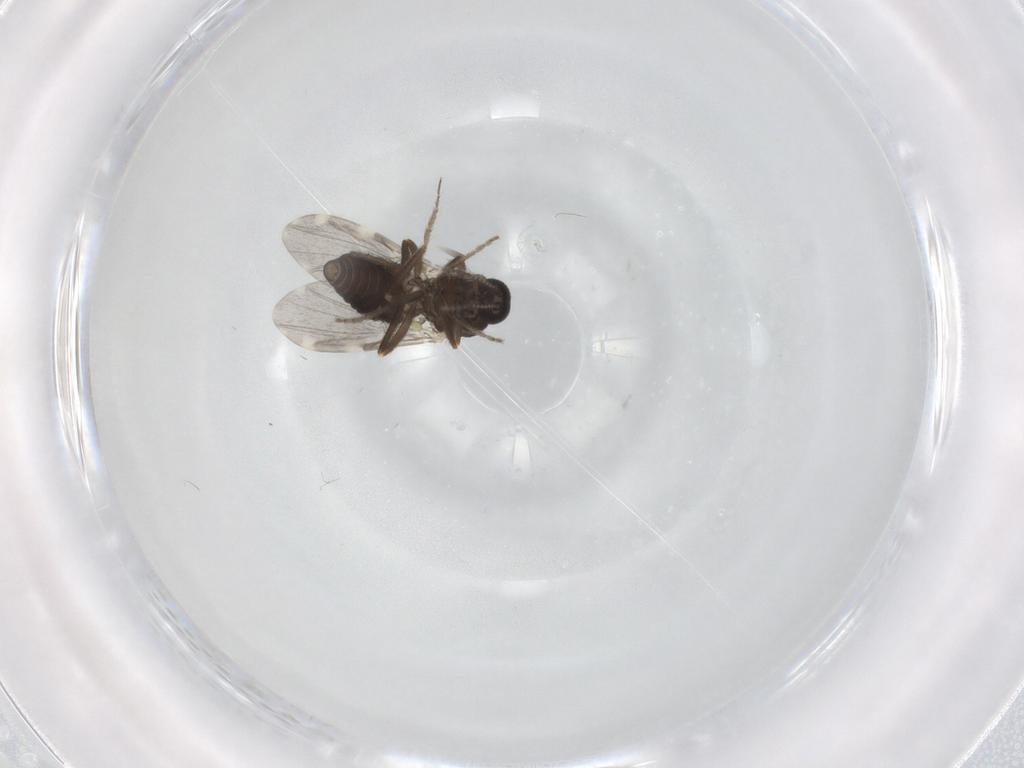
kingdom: Animalia
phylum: Arthropoda
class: Insecta
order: Diptera
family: Ceratopogonidae
